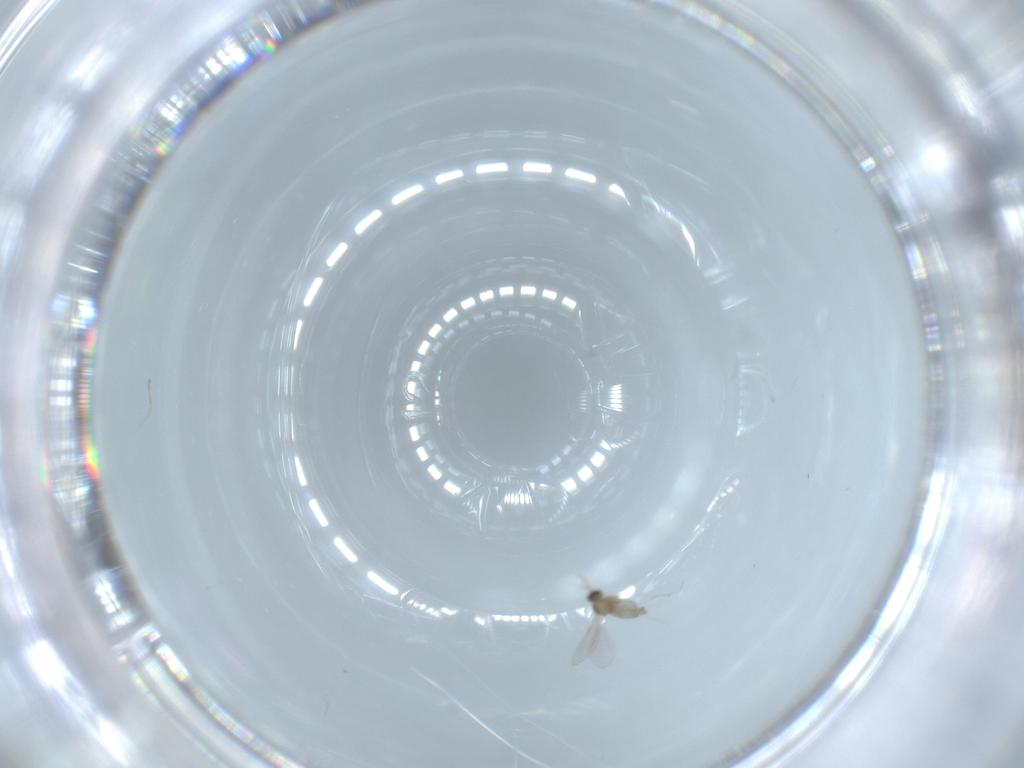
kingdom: Animalia
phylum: Arthropoda
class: Insecta
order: Diptera
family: Cecidomyiidae
